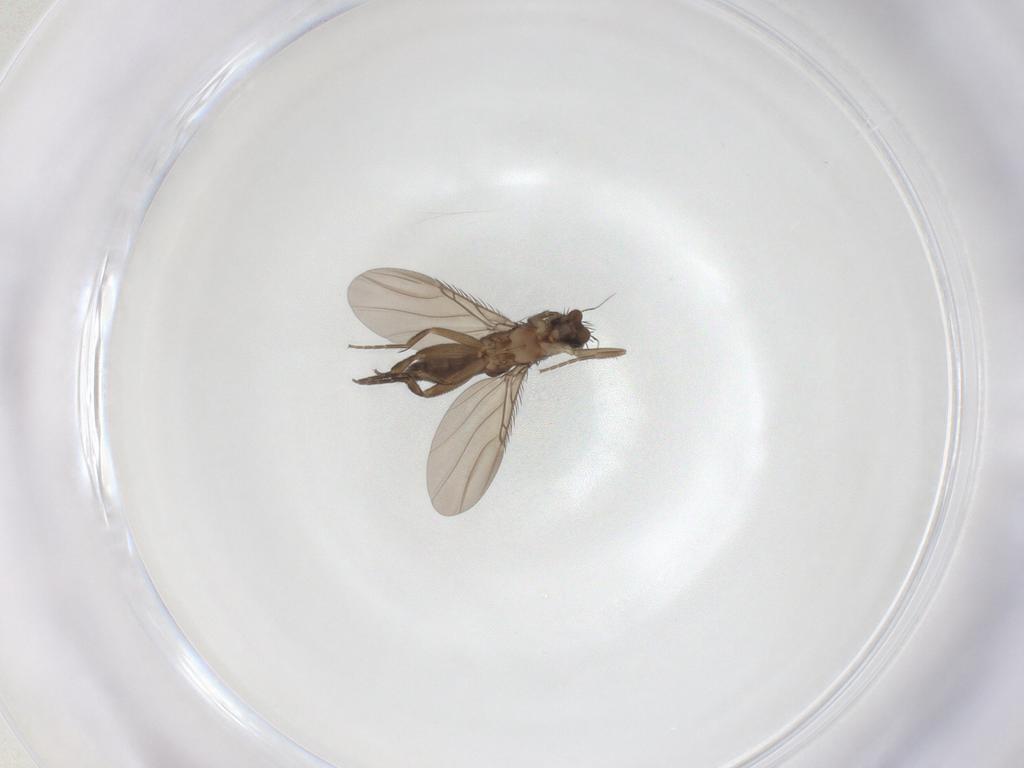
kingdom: Animalia
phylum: Arthropoda
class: Insecta
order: Diptera
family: Phoridae
